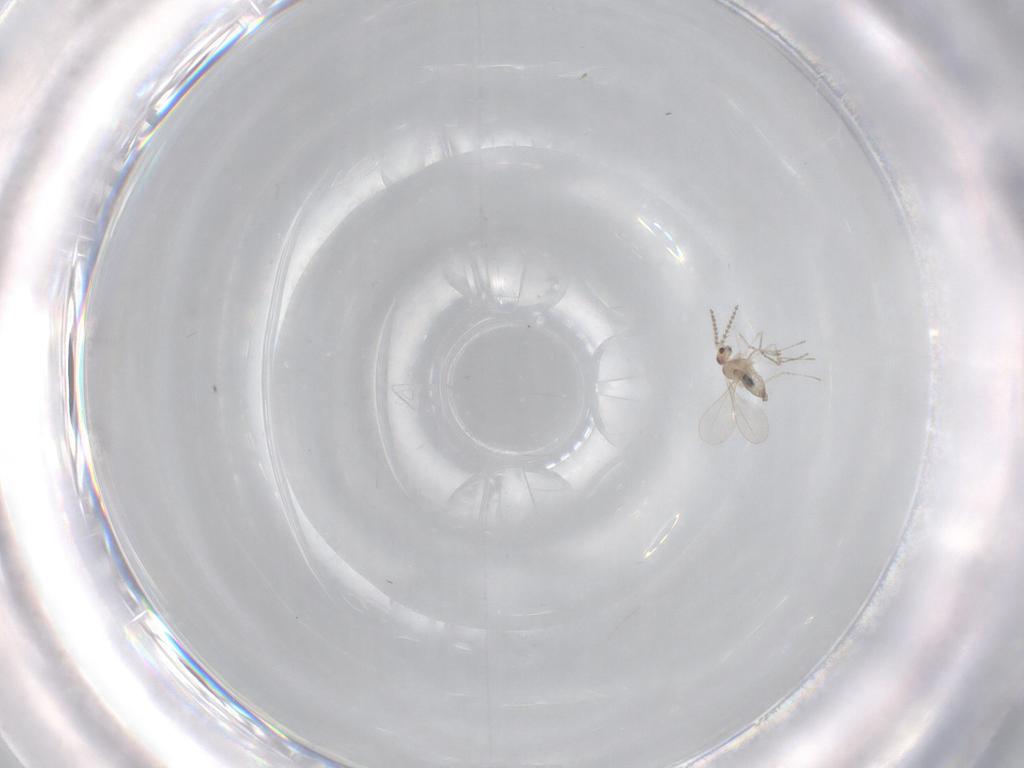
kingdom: Animalia
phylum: Arthropoda
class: Insecta
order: Diptera
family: Cecidomyiidae
